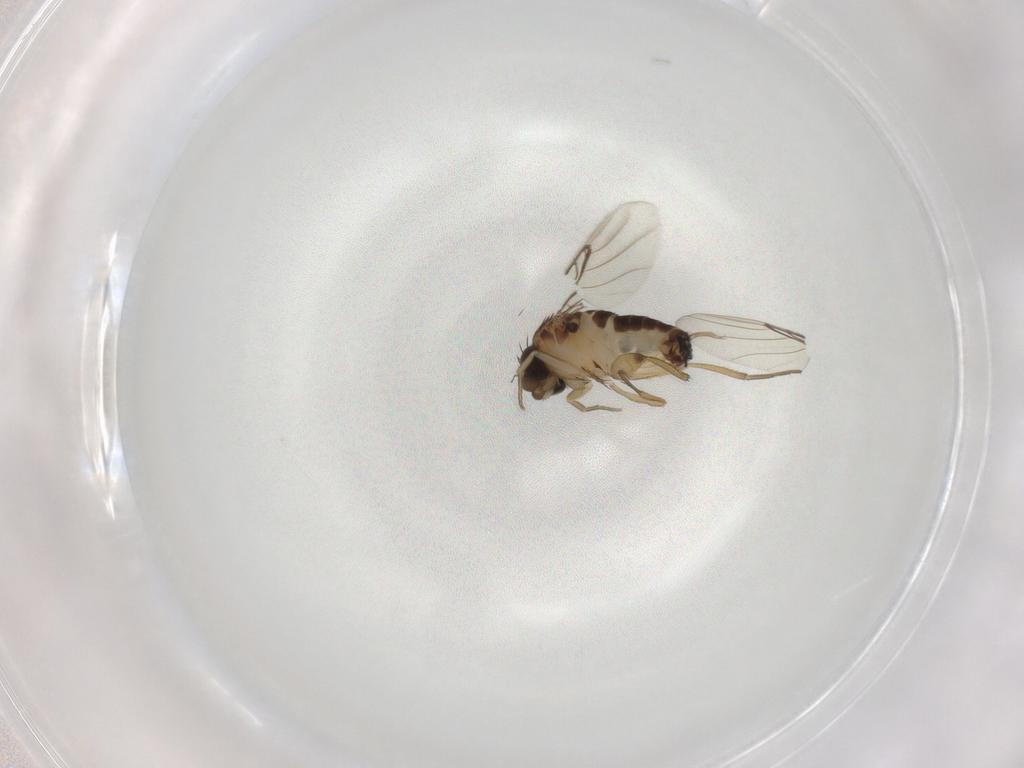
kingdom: Animalia
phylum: Arthropoda
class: Insecta
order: Diptera
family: Phoridae
